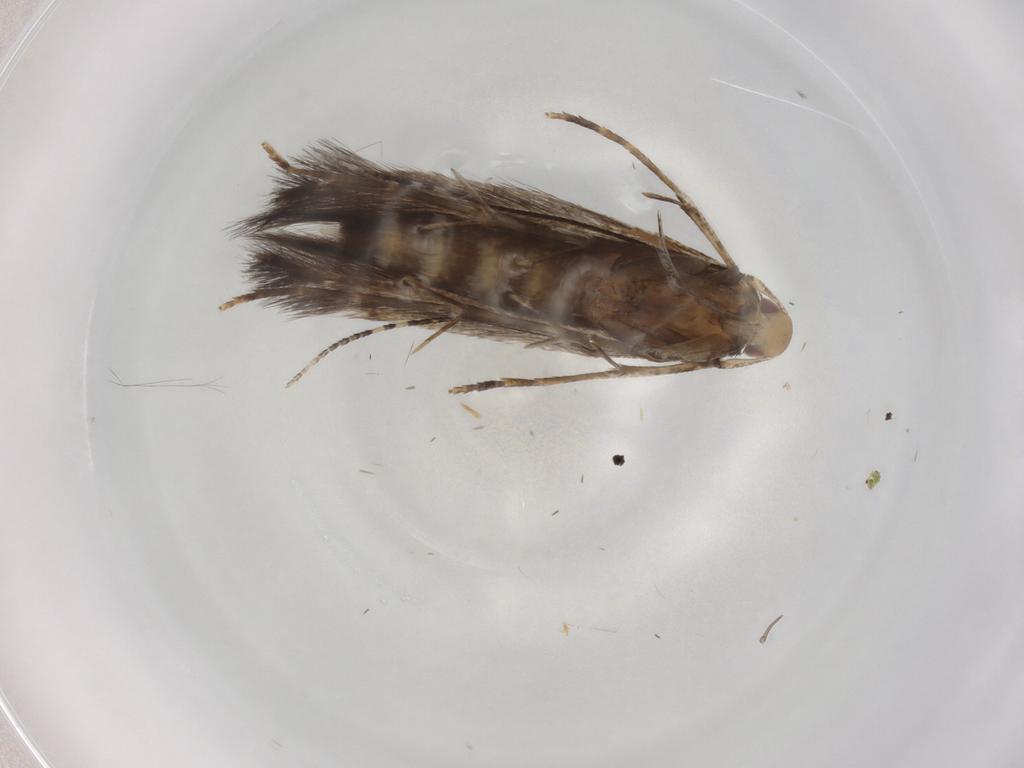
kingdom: Animalia
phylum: Arthropoda
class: Insecta
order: Lepidoptera
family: Cosmopterigidae
